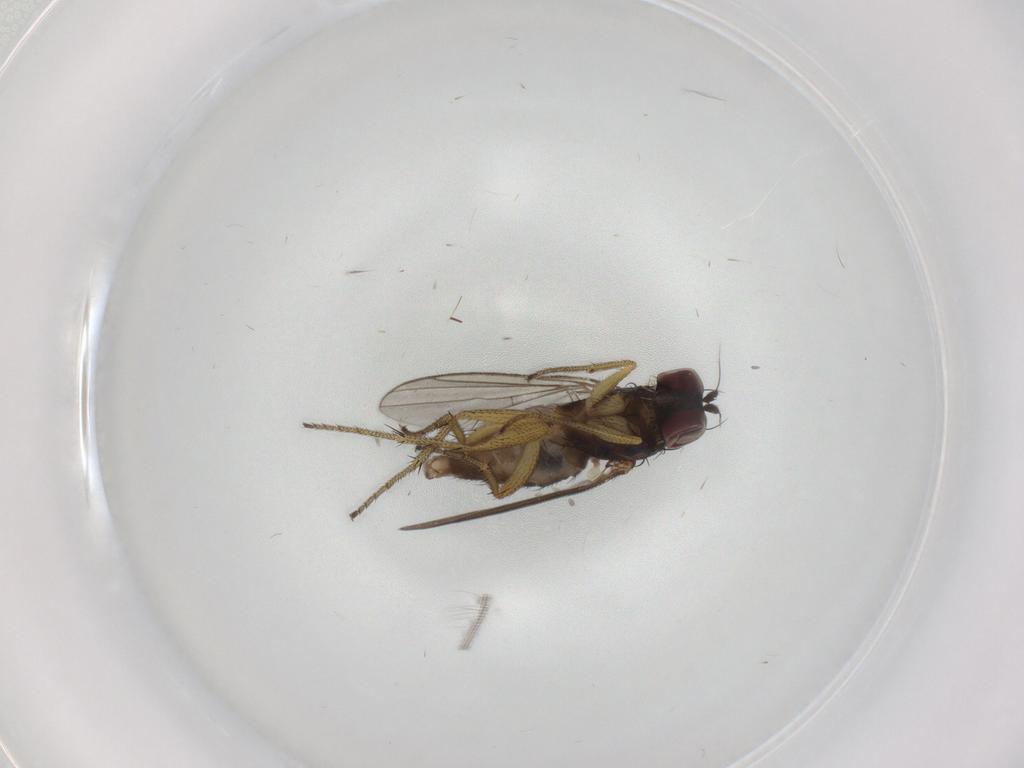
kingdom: Animalia
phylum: Arthropoda
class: Insecta
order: Diptera
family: Dolichopodidae
